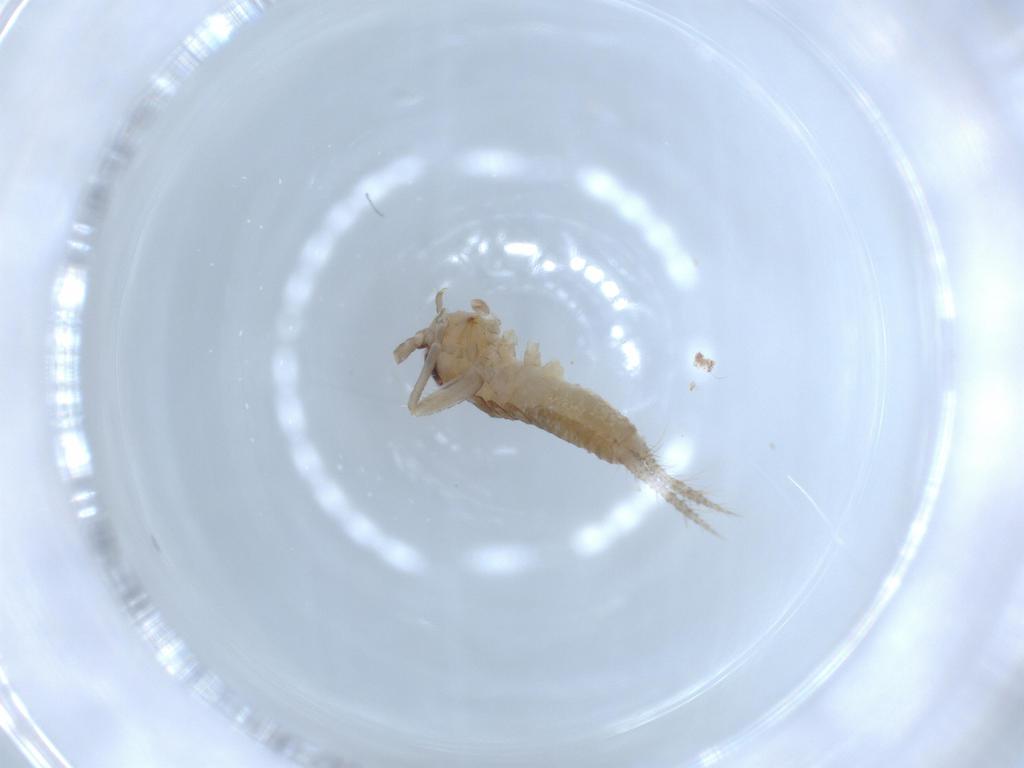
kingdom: Animalia
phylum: Arthropoda
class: Insecta
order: Orthoptera
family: Gryllidae
